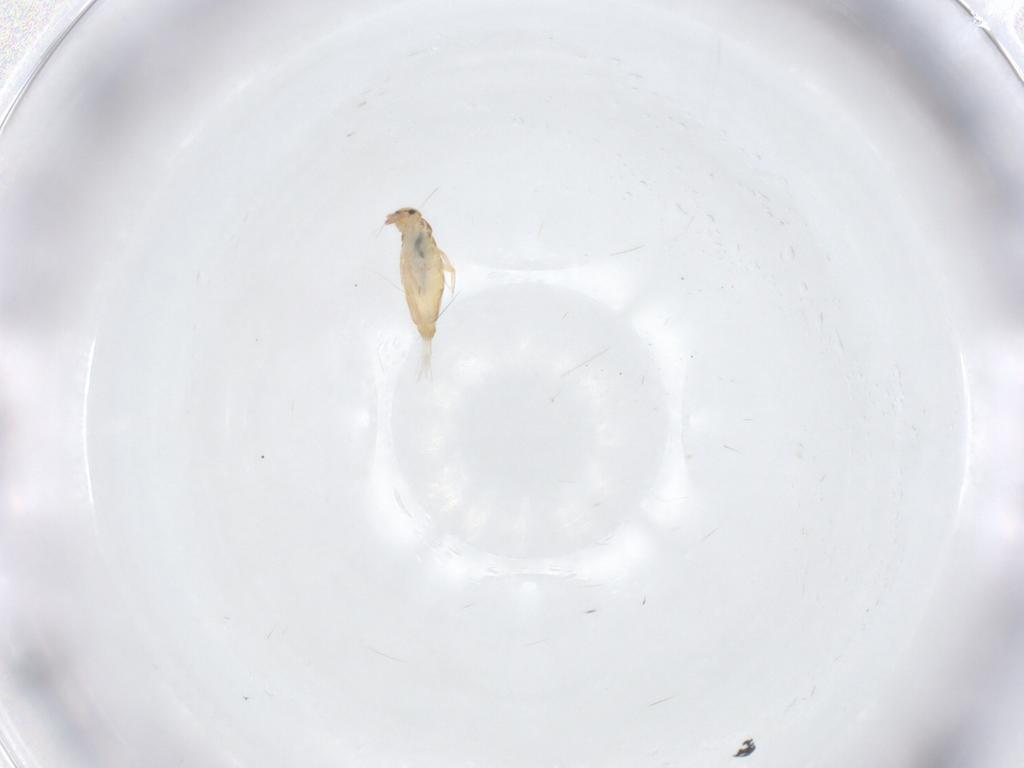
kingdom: Animalia
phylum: Arthropoda
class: Collembola
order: Entomobryomorpha
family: Entomobryidae
